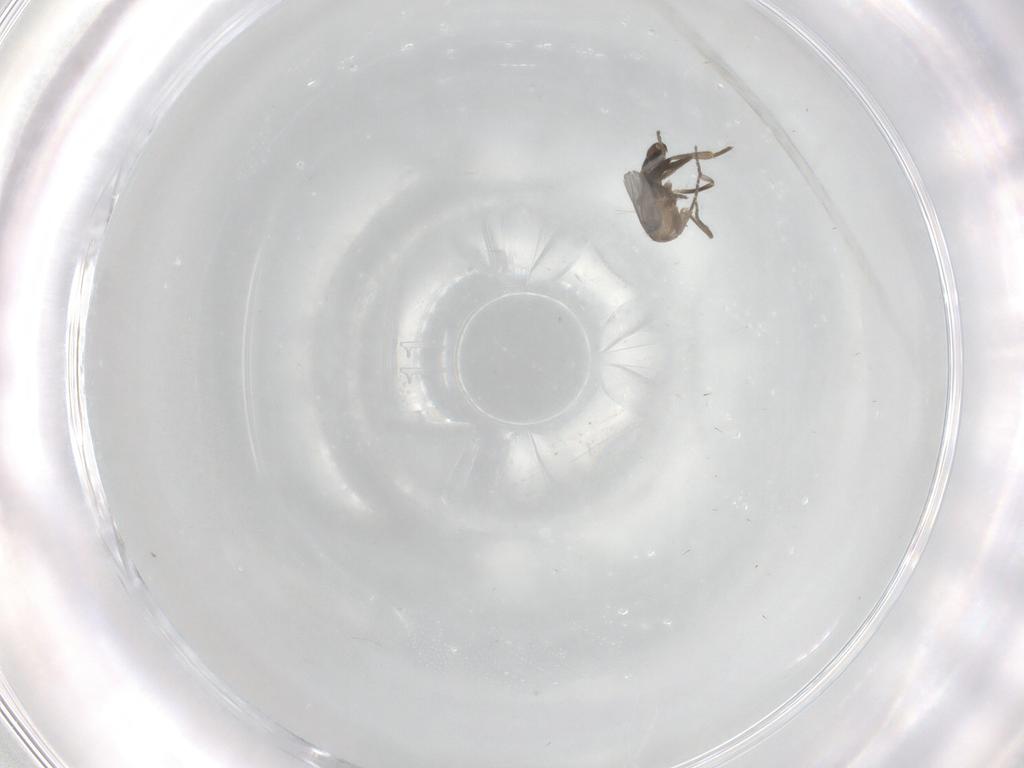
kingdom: Animalia
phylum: Arthropoda
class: Insecta
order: Diptera
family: Phoridae
